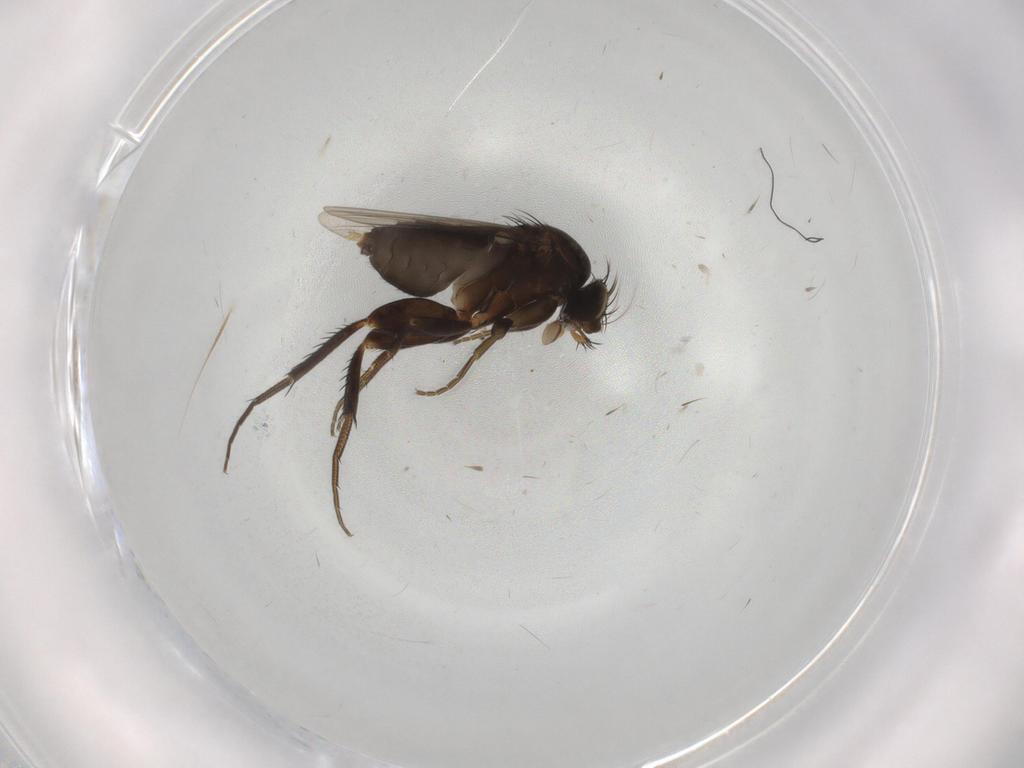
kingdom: Animalia
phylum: Arthropoda
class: Insecta
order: Diptera
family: Phoridae
